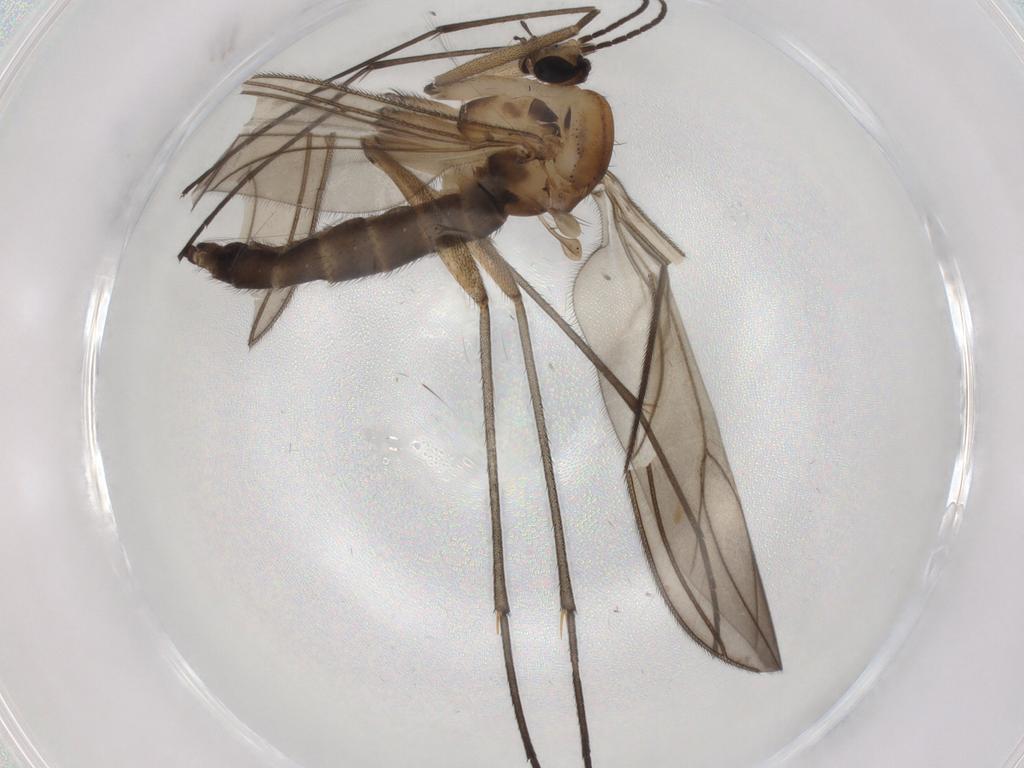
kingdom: Animalia
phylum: Arthropoda
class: Insecta
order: Diptera
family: Sciaridae
